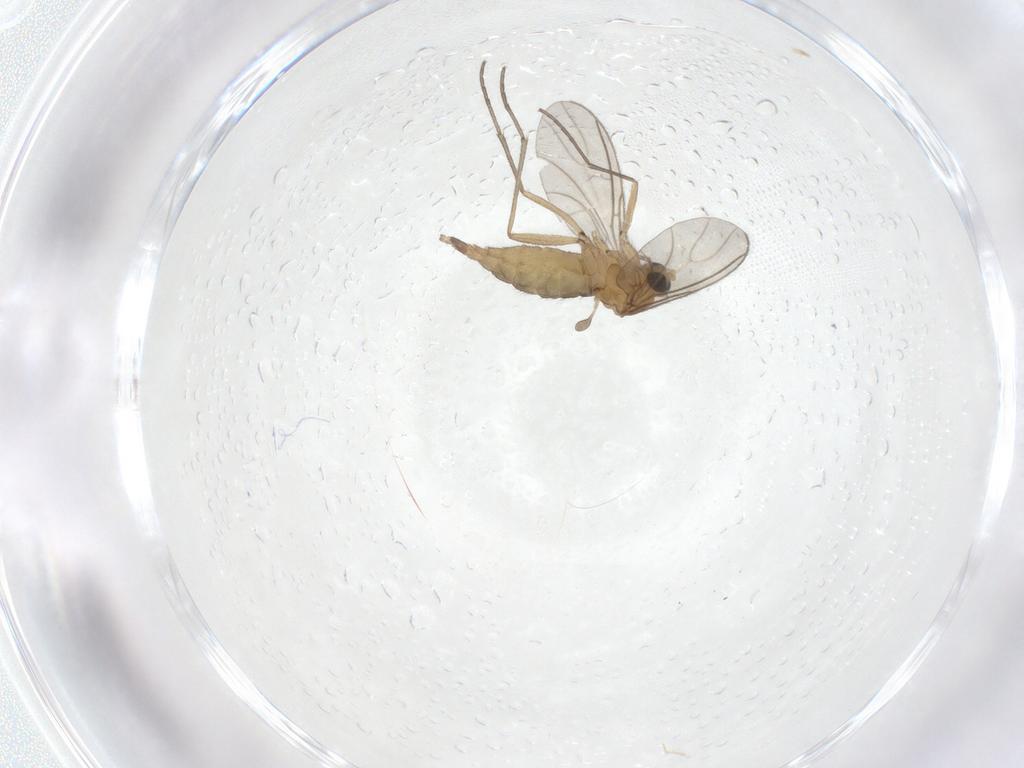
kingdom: Animalia
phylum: Arthropoda
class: Insecta
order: Diptera
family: Sciaridae
